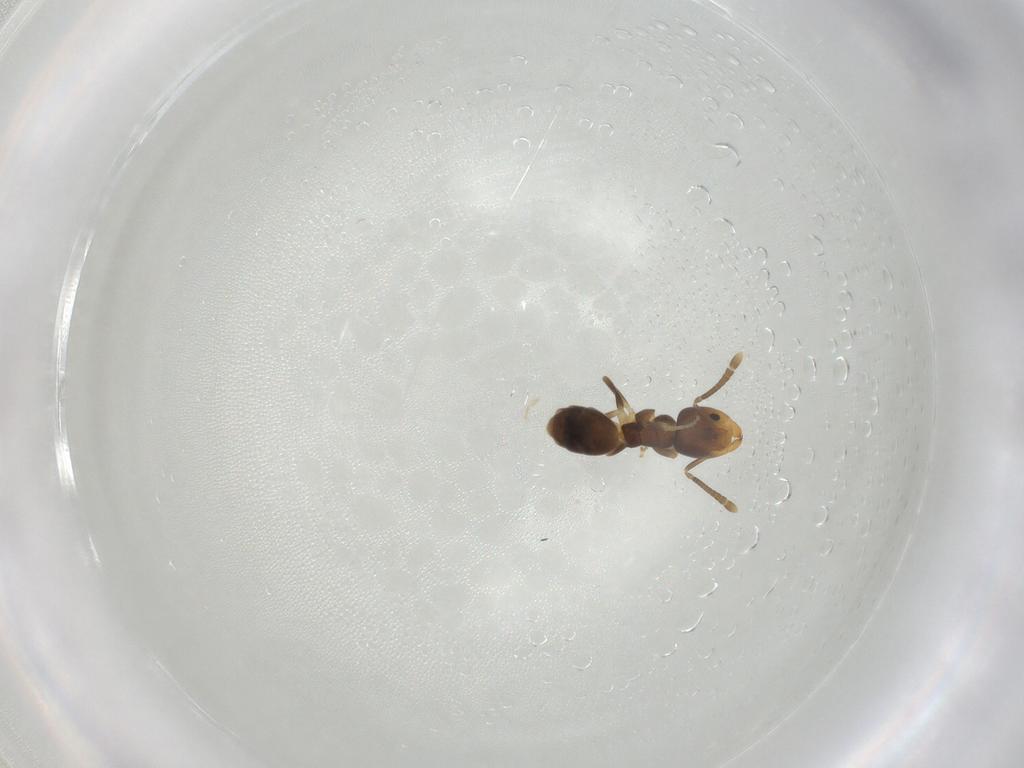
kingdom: Animalia
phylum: Arthropoda
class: Insecta
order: Hymenoptera
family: Formicidae
